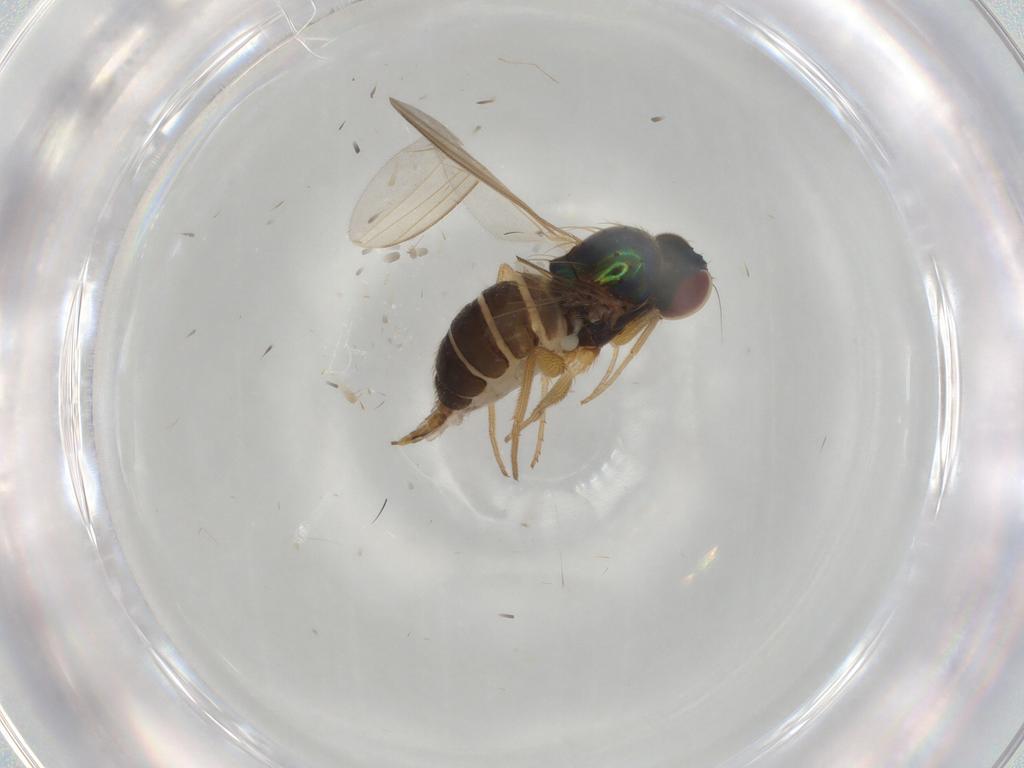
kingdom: Animalia
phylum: Arthropoda
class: Insecta
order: Diptera
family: Dolichopodidae
